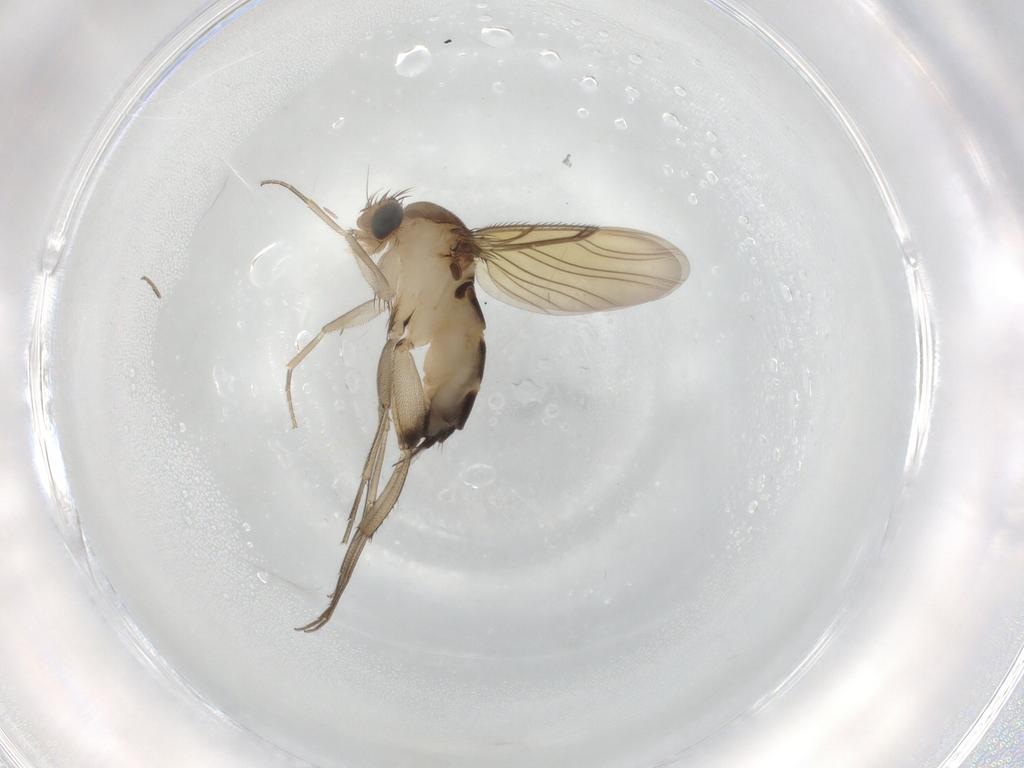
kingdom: Animalia
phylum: Arthropoda
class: Insecta
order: Diptera
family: Phoridae
